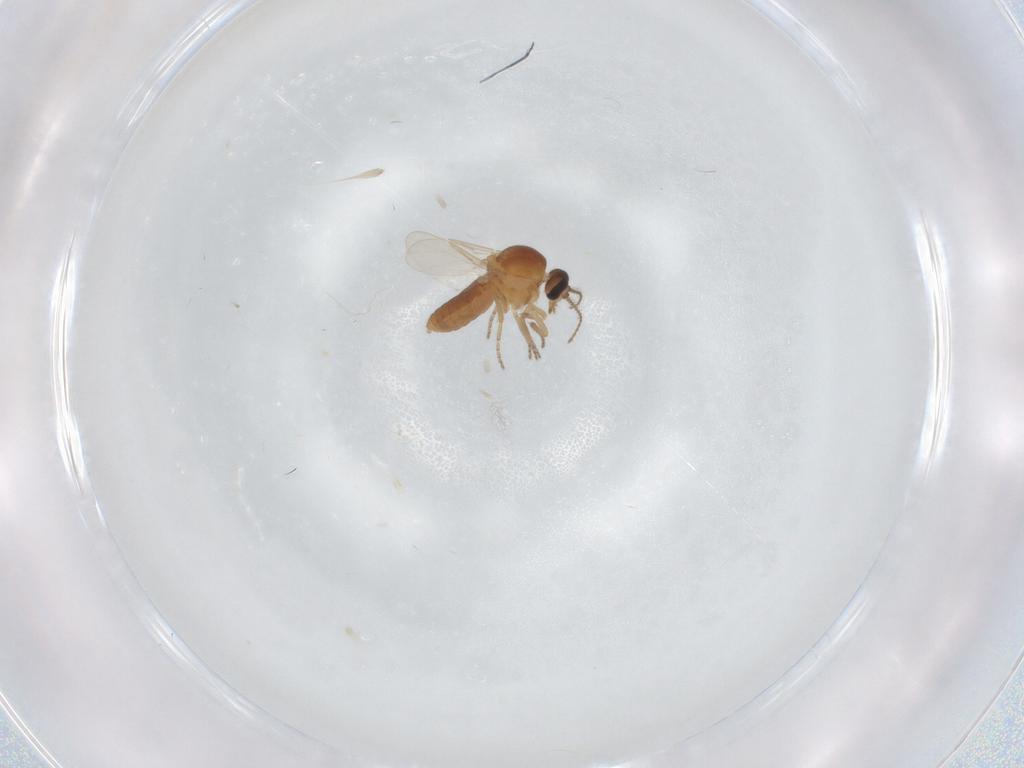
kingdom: Animalia
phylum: Arthropoda
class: Insecta
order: Diptera
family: Ceratopogonidae
